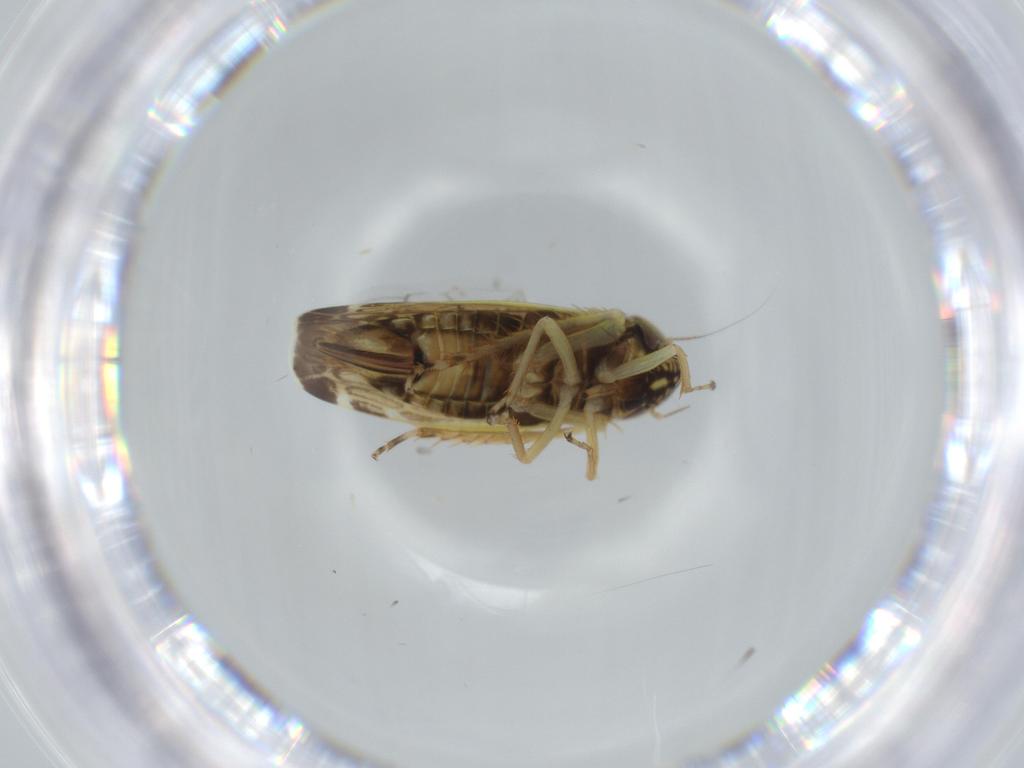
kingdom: Animalia
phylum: Arthropoda
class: Insecta
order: Hemiptera
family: Cicadellidae
